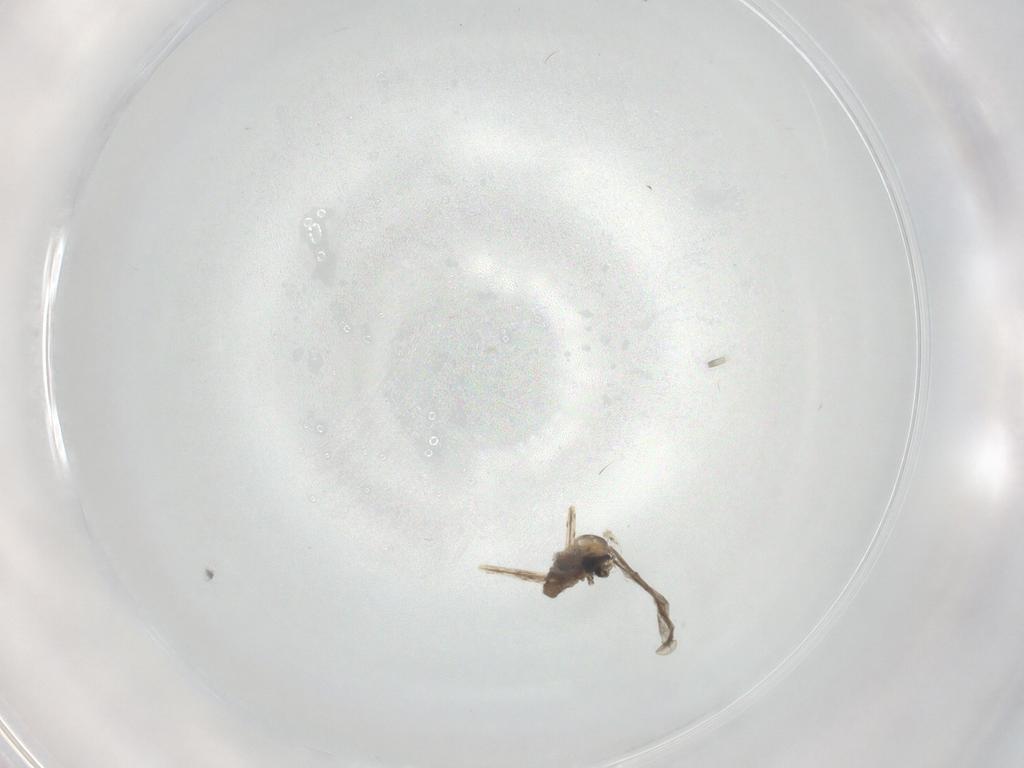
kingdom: Animalia
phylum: Arthropoda
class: Insecta
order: Diptera
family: Cecidomyiidae
